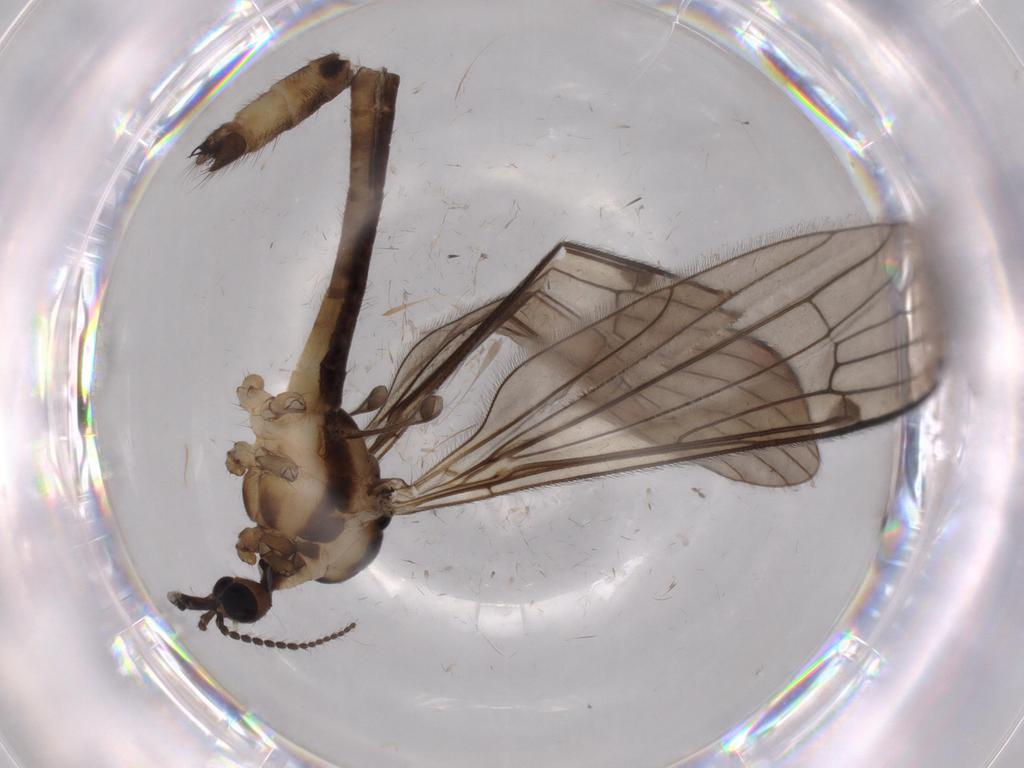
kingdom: Animalia
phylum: Arthropoda
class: Insecta
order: Diptera
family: Limoniidae
